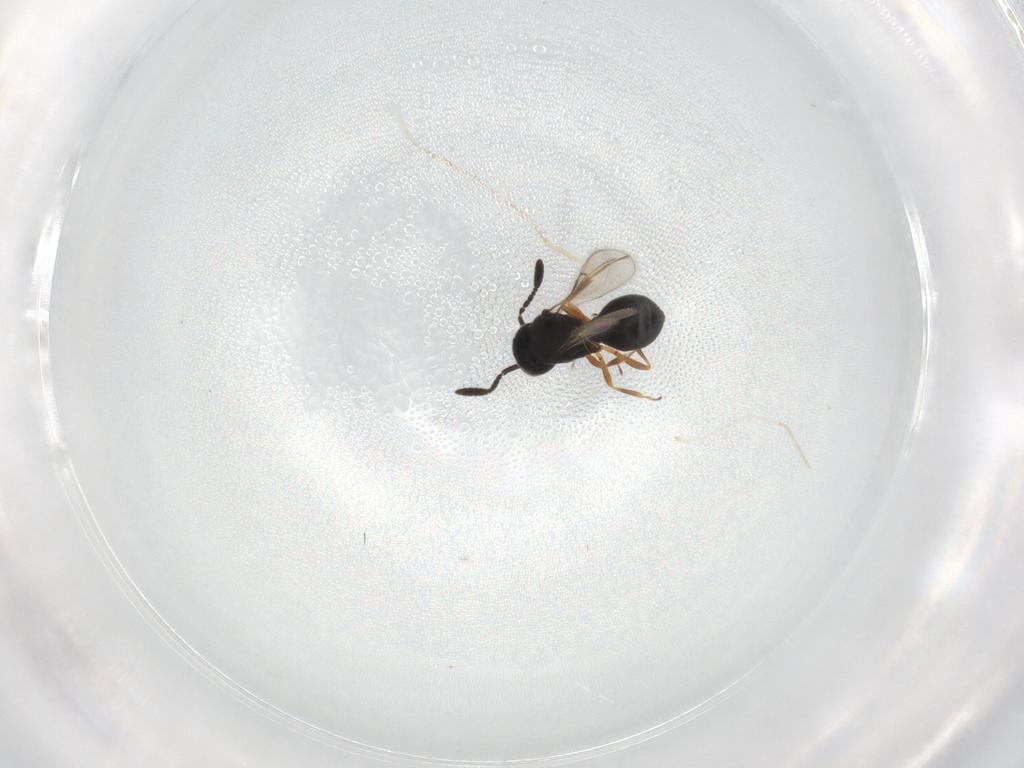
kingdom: Animalia
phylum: Arthropoda
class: Insecta
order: Hymenoptera
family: Scelionidae
